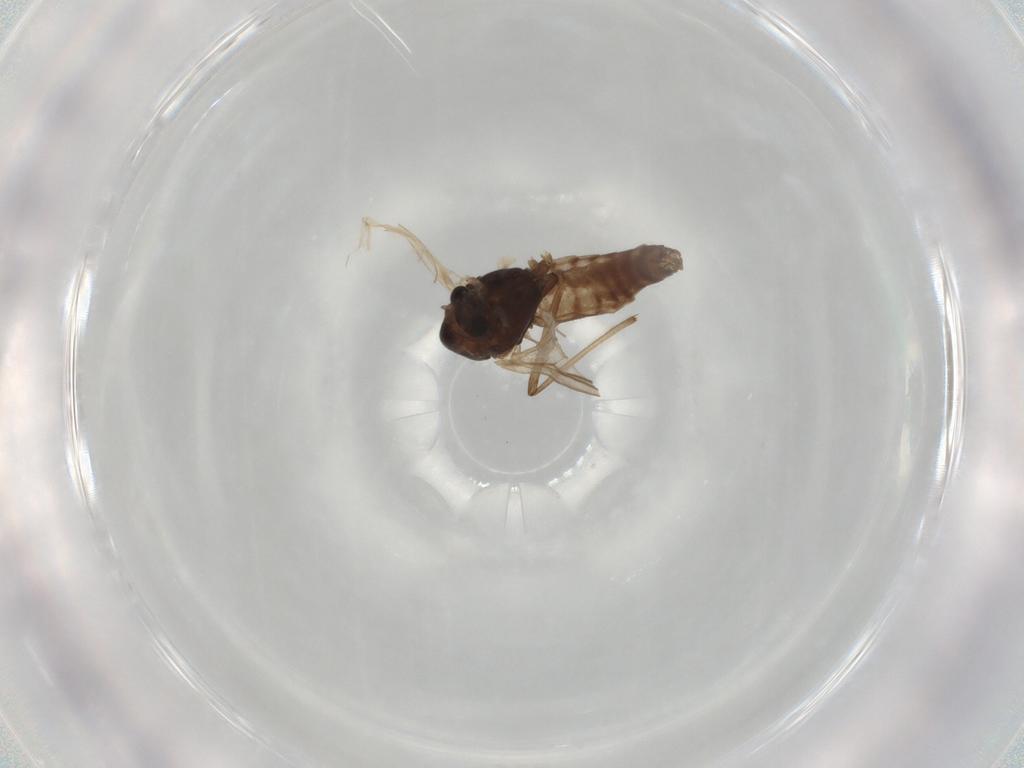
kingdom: Animalia
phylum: Arthropoda
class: Insecta
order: Diptera
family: Chironomidae
